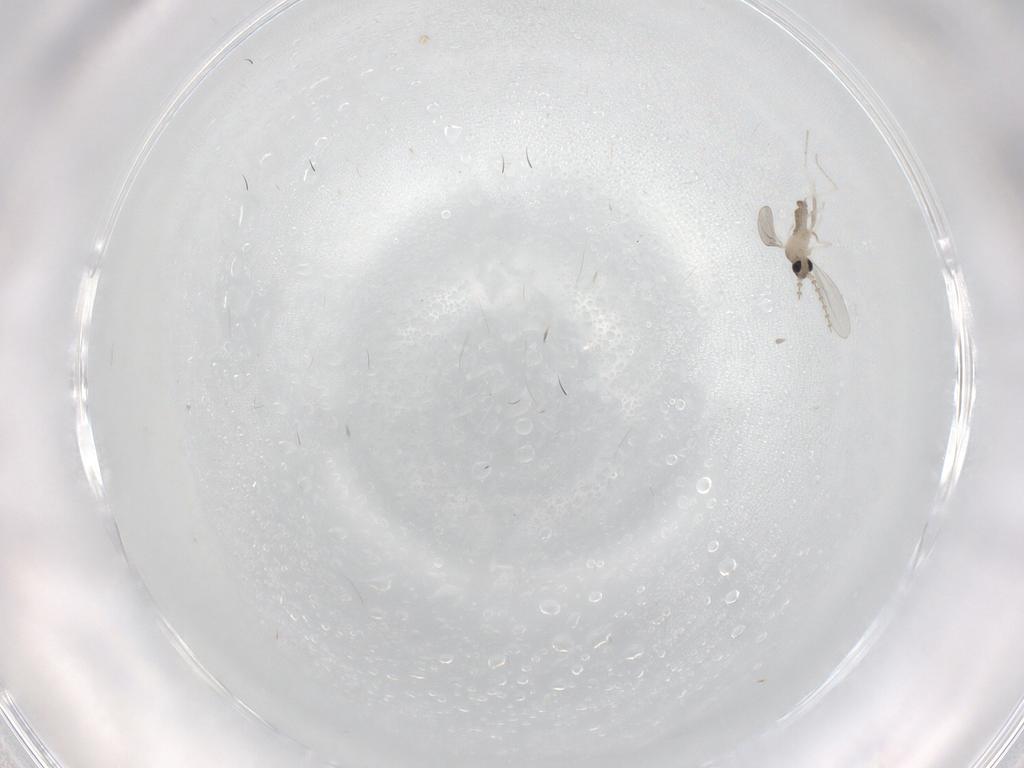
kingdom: Animalia
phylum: Arthropoda
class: Insecta
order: Diptera
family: Cecidomyiidae
